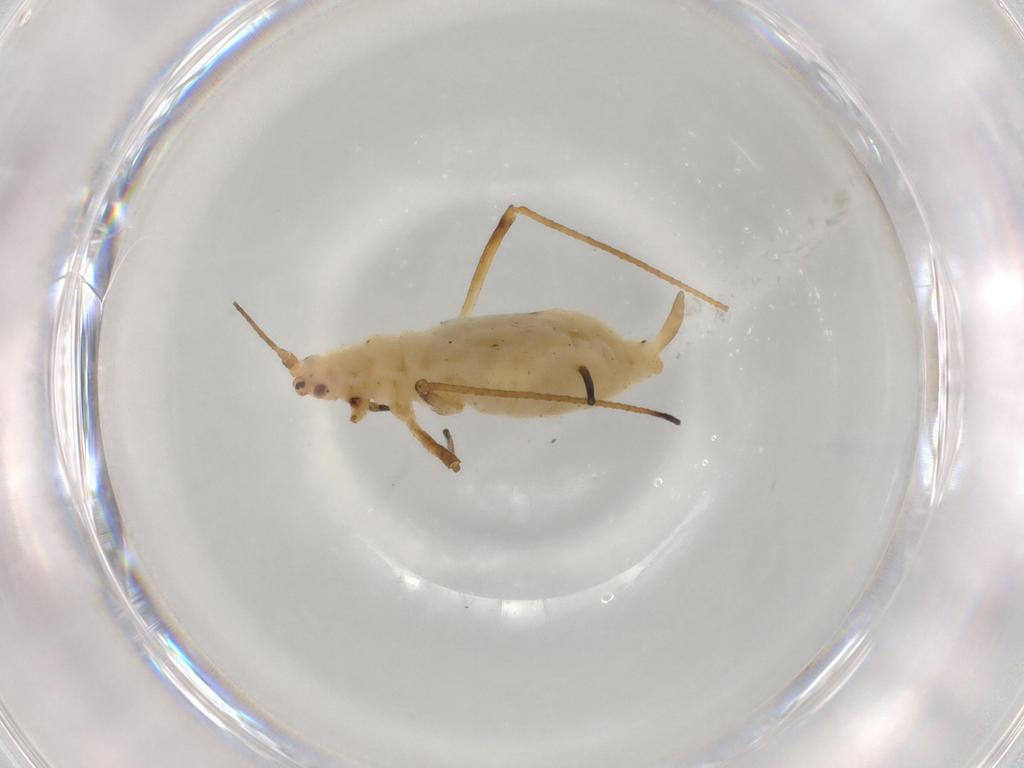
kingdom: Animalia
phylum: Arthropoda
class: Insecta
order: Hemiptera
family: Aphididae
